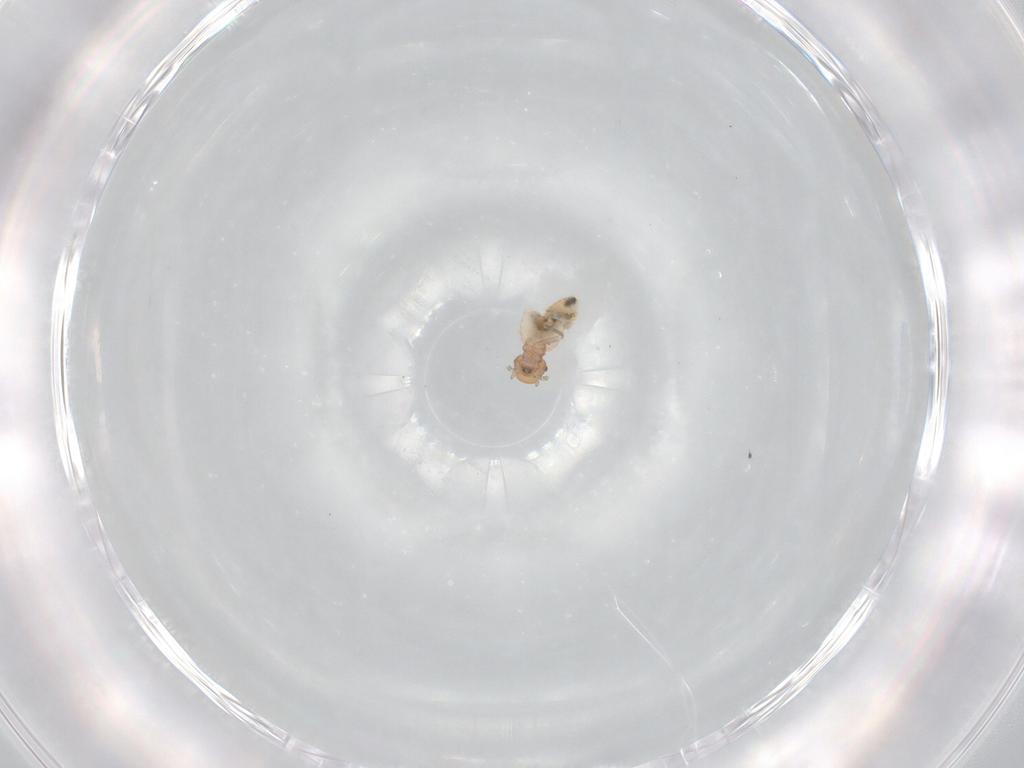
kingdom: Animalia
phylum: Arthropoda
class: Insecta
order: Psocodea
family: Caeciliusidae
